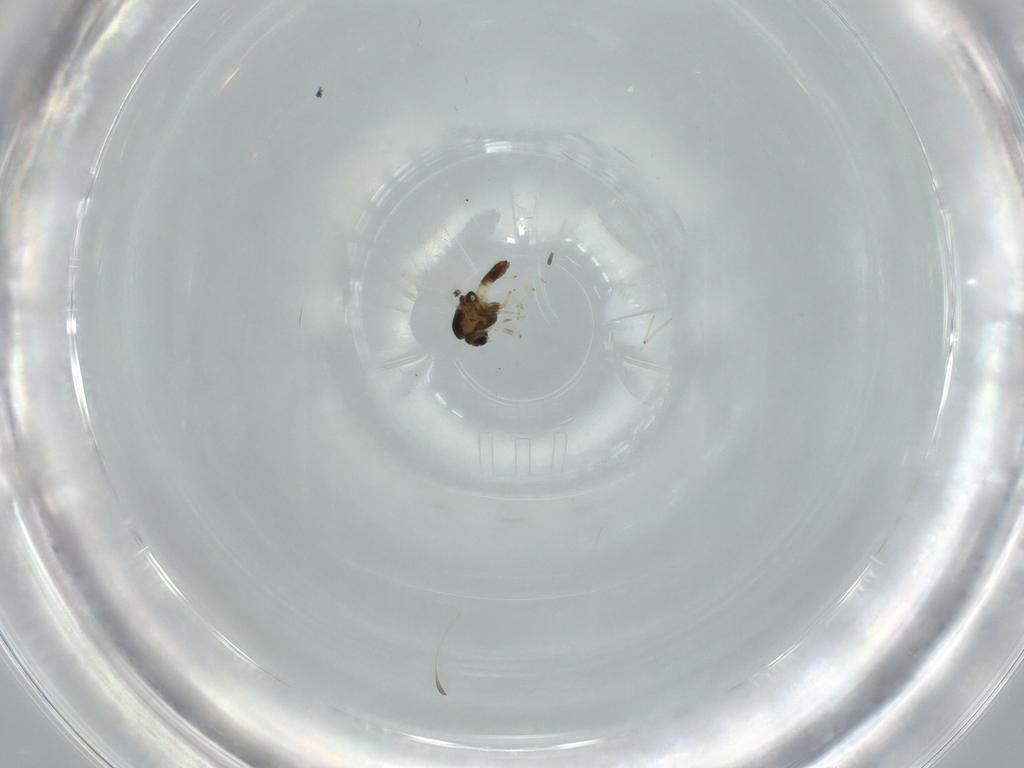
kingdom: Animalia
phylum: Arthropoda
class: Insecta
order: Diptera
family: Chironomidae
